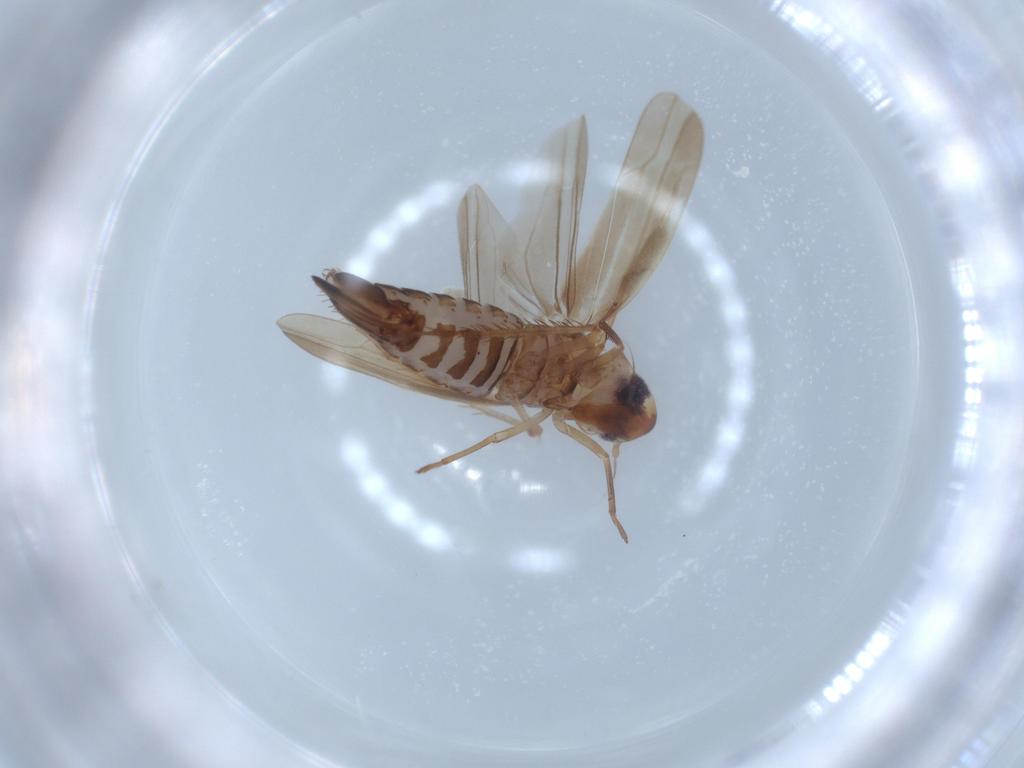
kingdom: Animalia
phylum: Arthropoda
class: Insecta
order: Hemiptera
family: Cicadellidae
